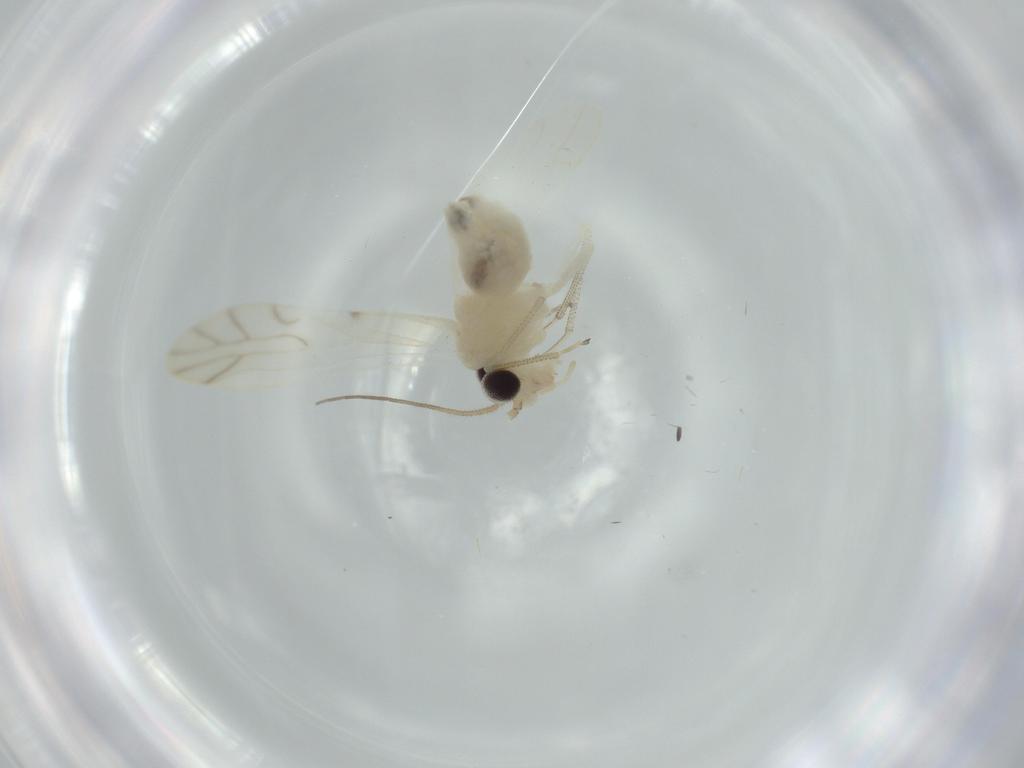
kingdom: Animalia
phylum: Arthropoda
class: Insecta
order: Psocodea
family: Caeciliusidae
